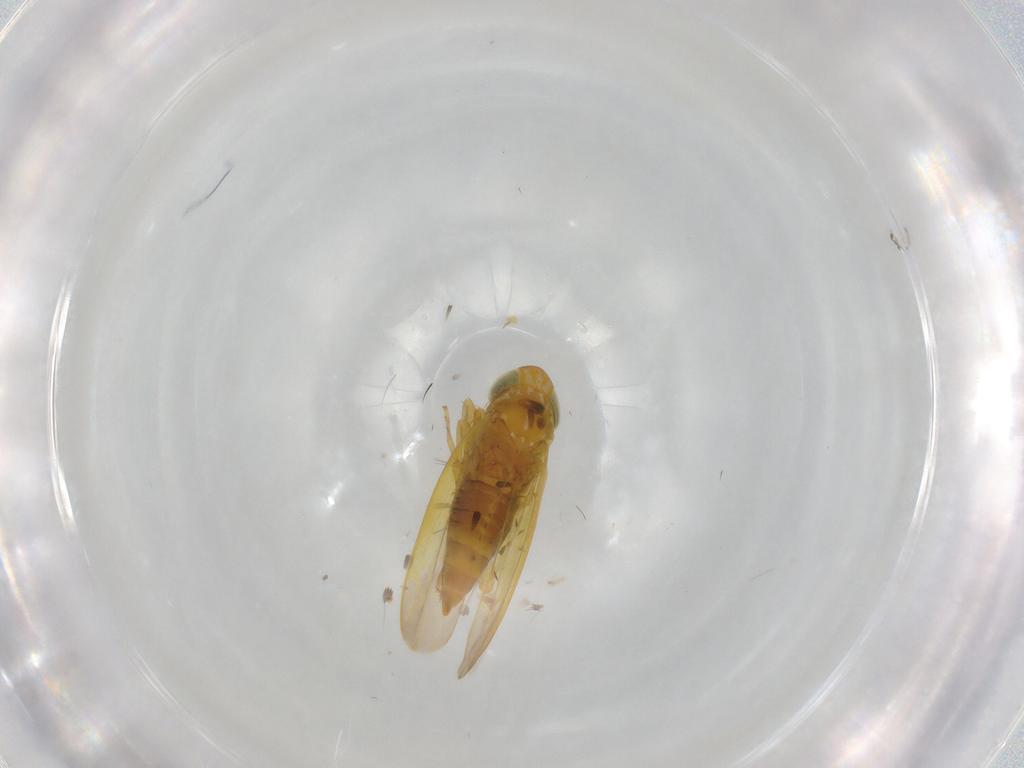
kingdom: Animalia
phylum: Arthropoda
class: Insecta
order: Hemiptera
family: Cicadellidae
